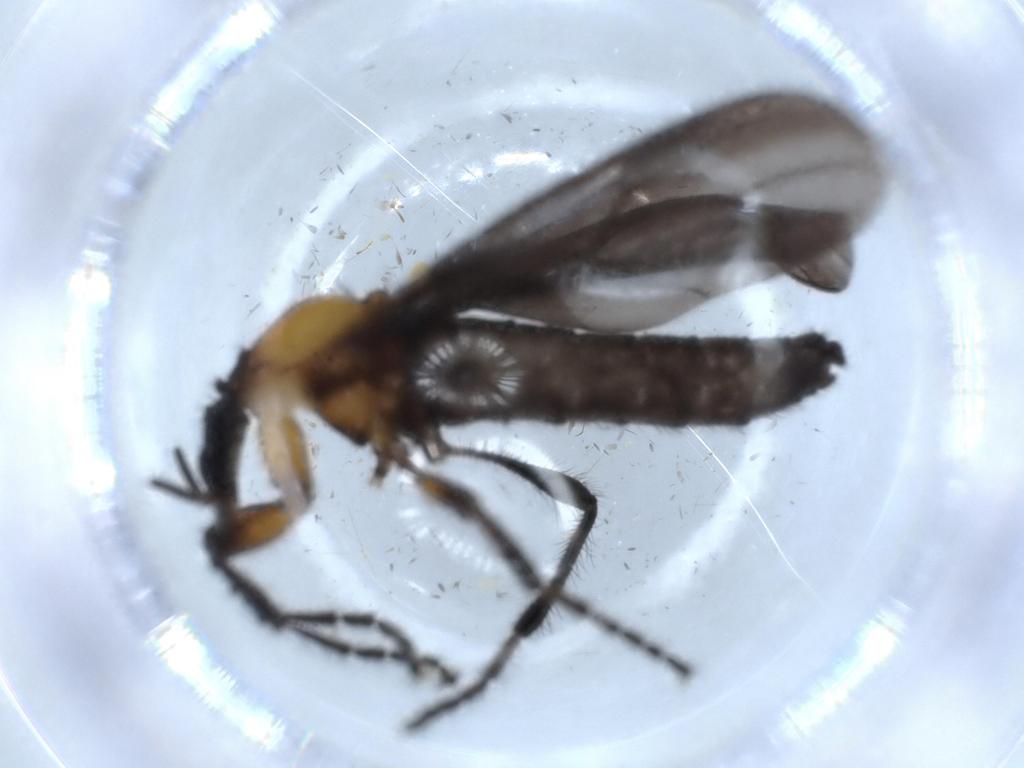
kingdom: Animalia
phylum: Arthropoda
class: Insecta
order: Diptera
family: Bibionidae
